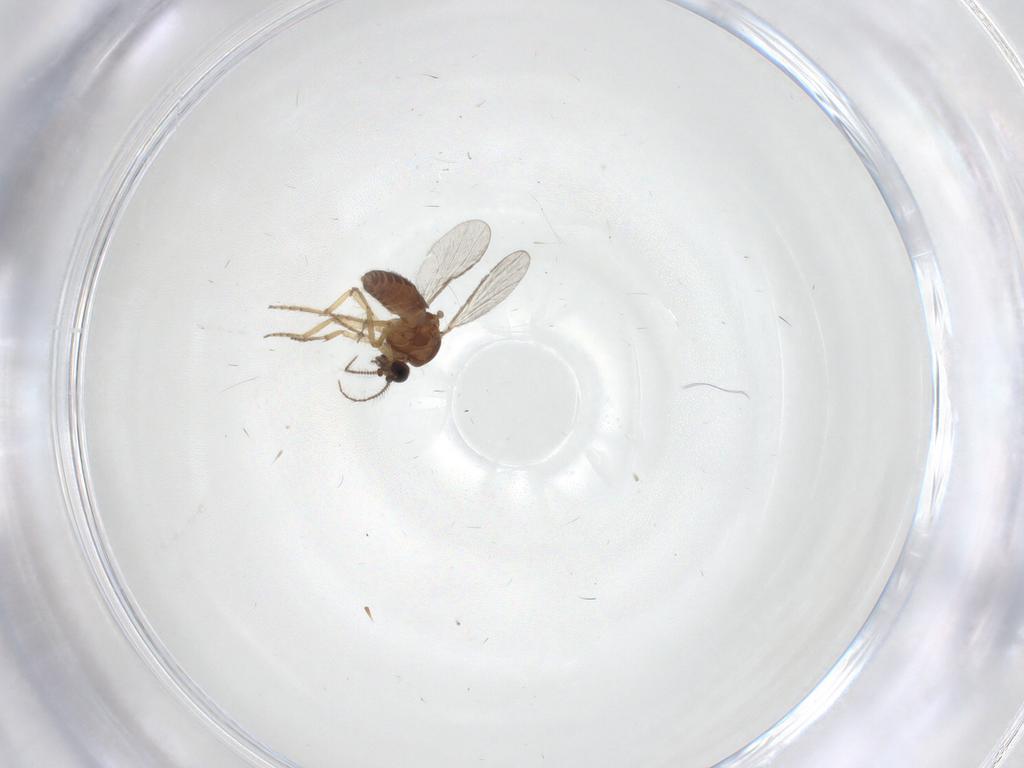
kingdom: Animalia
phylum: Arthropoda
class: Insecta
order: Diptera
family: Ceratopogonidae
